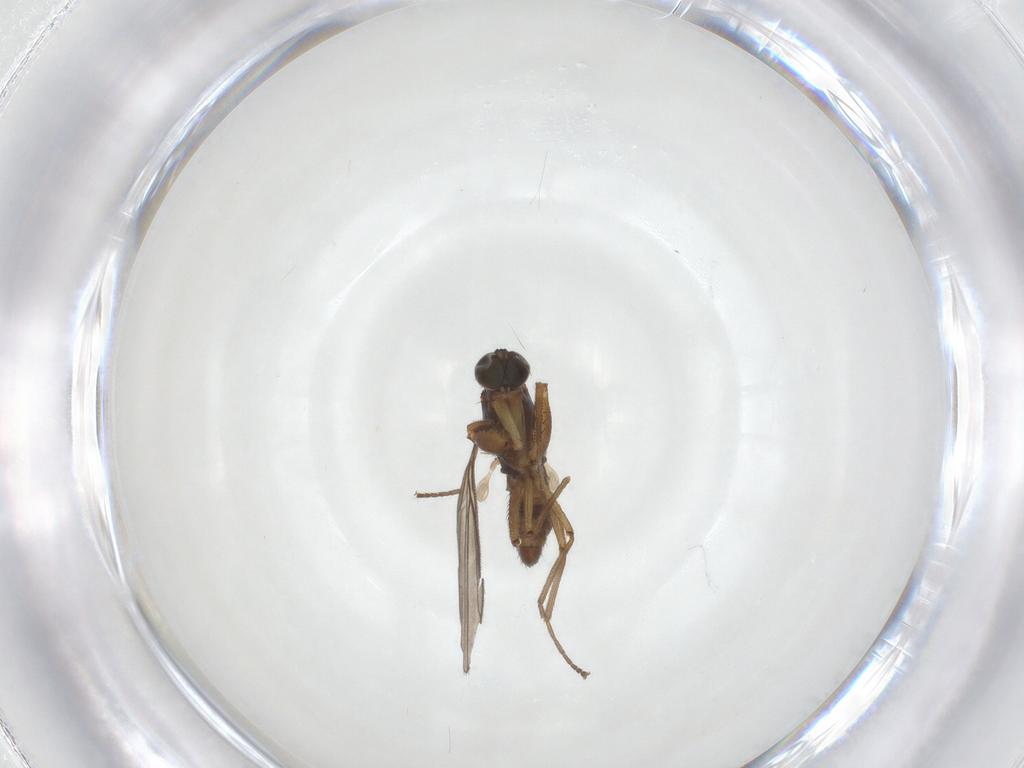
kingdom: Animalia
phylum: Arthropoda
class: Insecta
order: Diptera
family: Empididae
